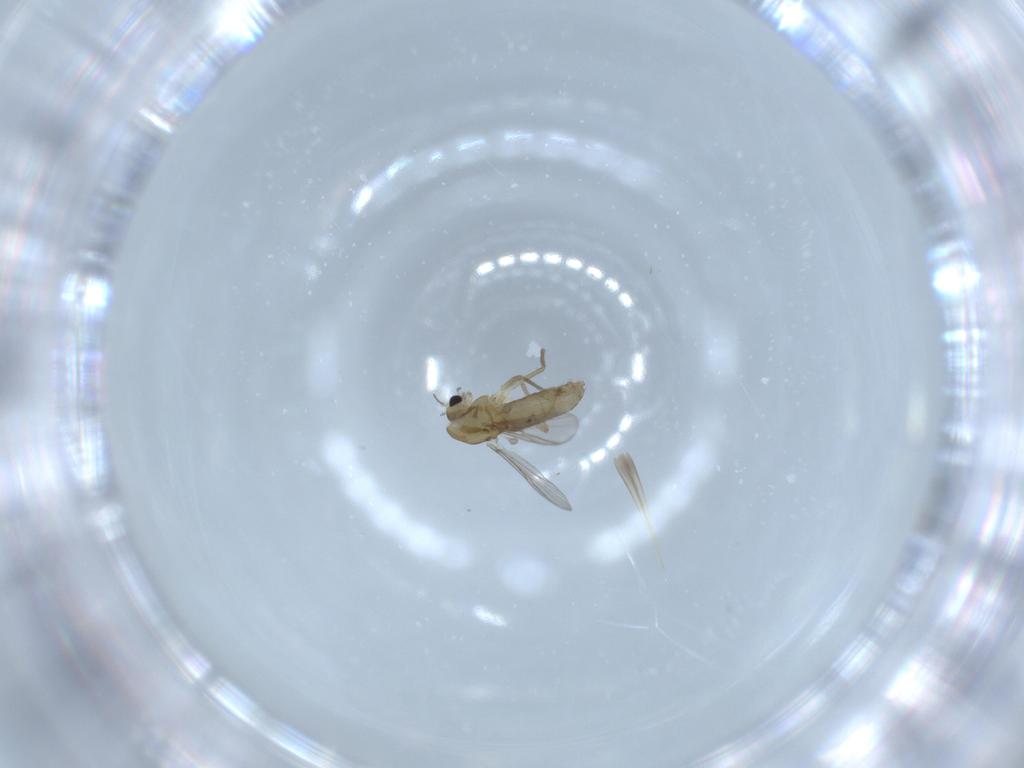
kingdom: Animalia
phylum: Arthropoda
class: Insecta
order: Diptera
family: Chironomidae
